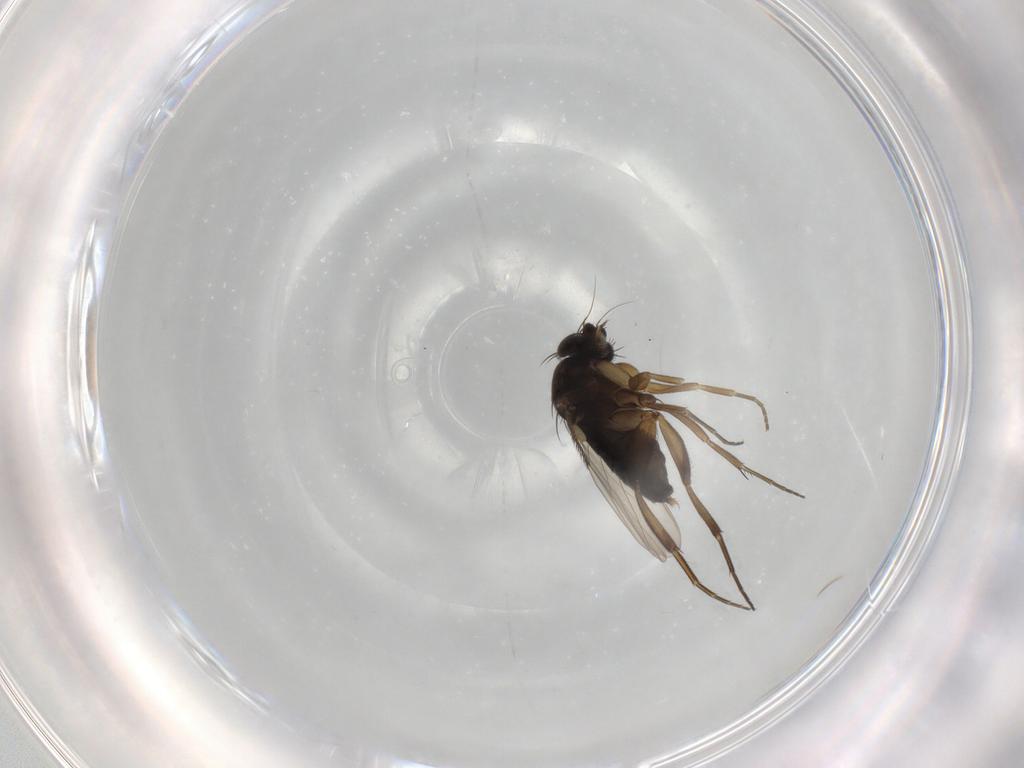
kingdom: Animalia
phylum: Arthropoda
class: Insecta
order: Diptera
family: Phoridae
